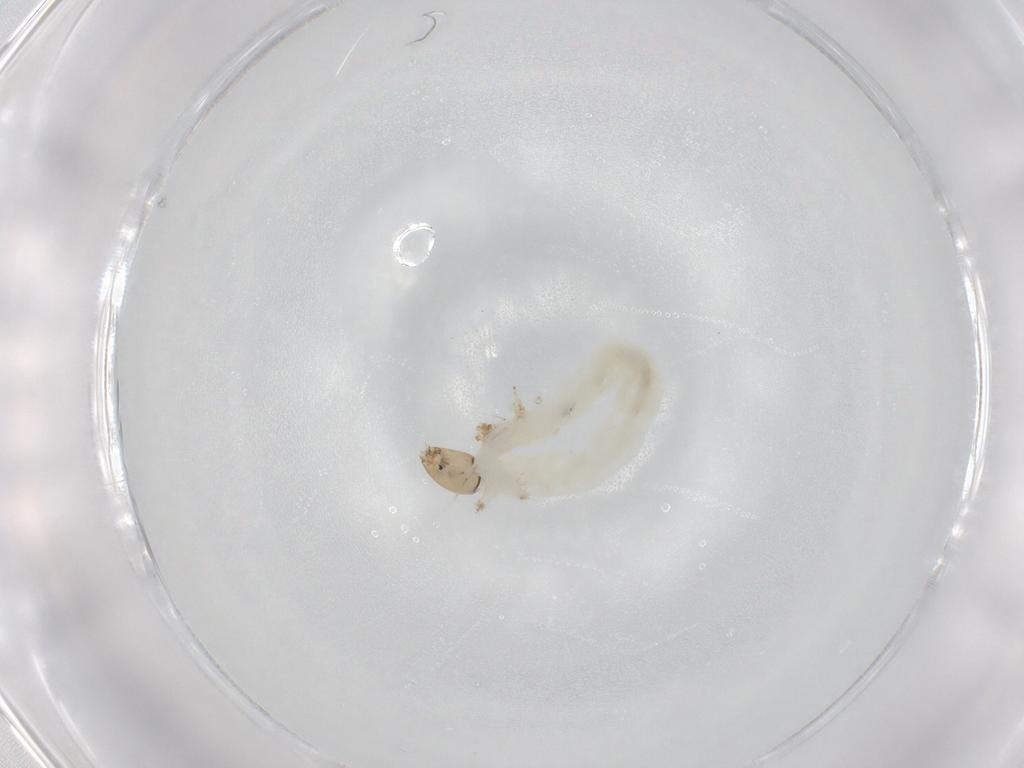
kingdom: Animalia
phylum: Arthropoda
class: Insecta
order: Diptera
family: Chironomidae
